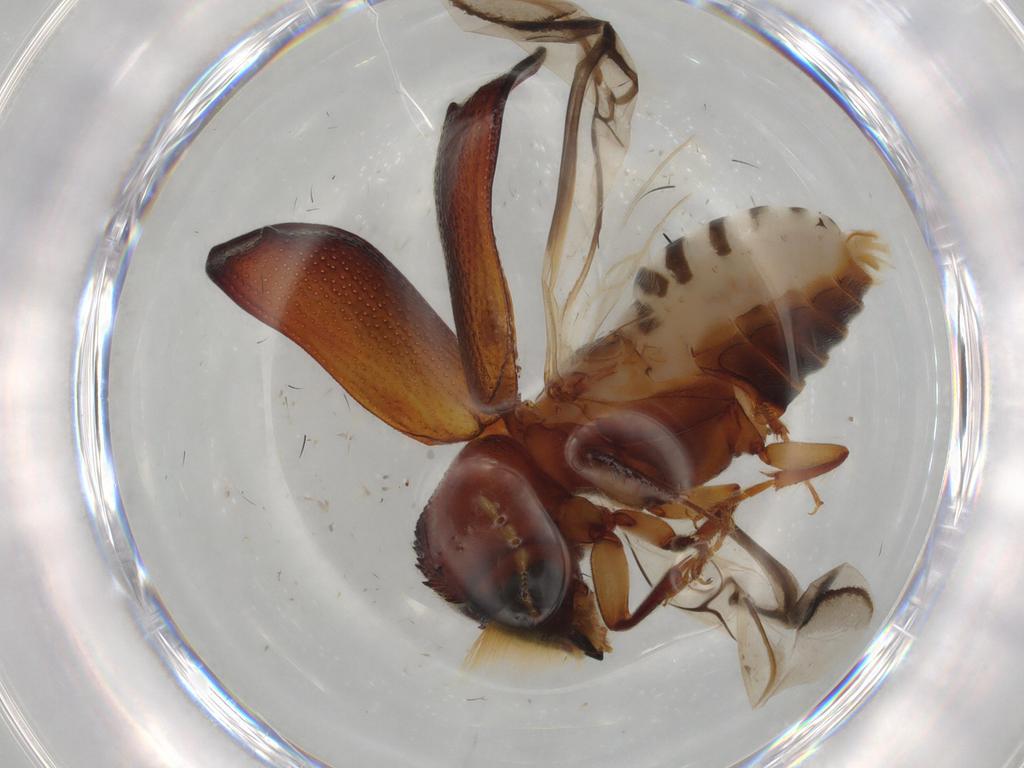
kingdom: Animalia
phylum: Arthropoda
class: Insecta
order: Coleoptera
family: Bostrichidae
